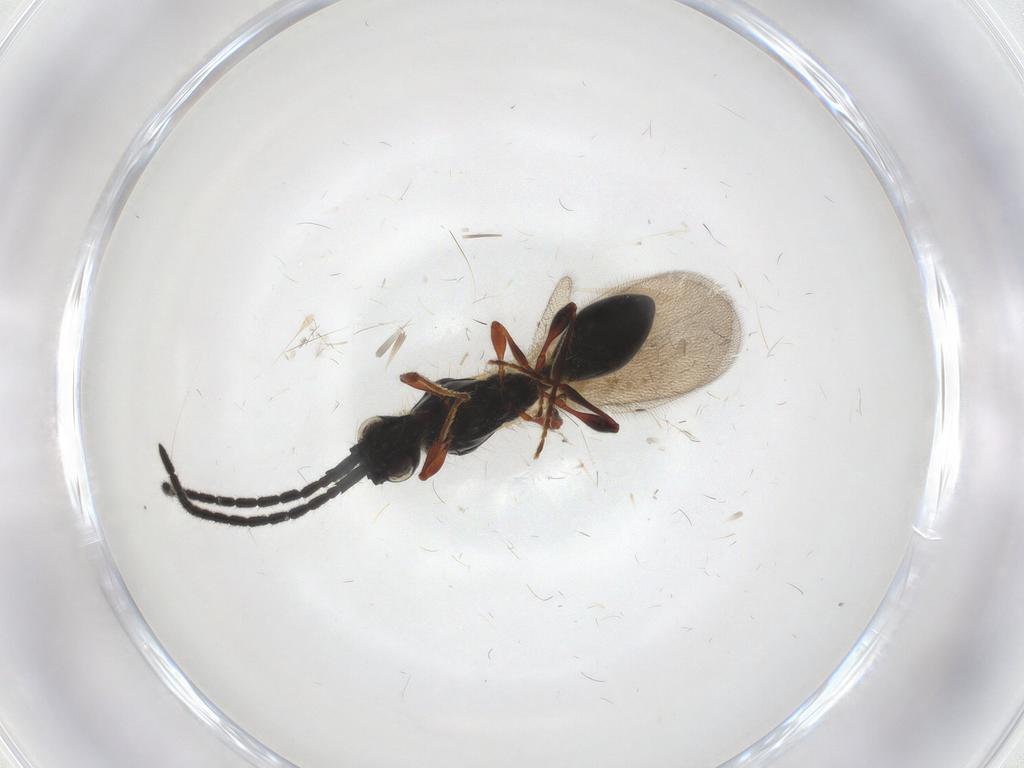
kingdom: Animalia
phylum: Arthropoda
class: Insecta
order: Hymenoptera
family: Diapriidae
